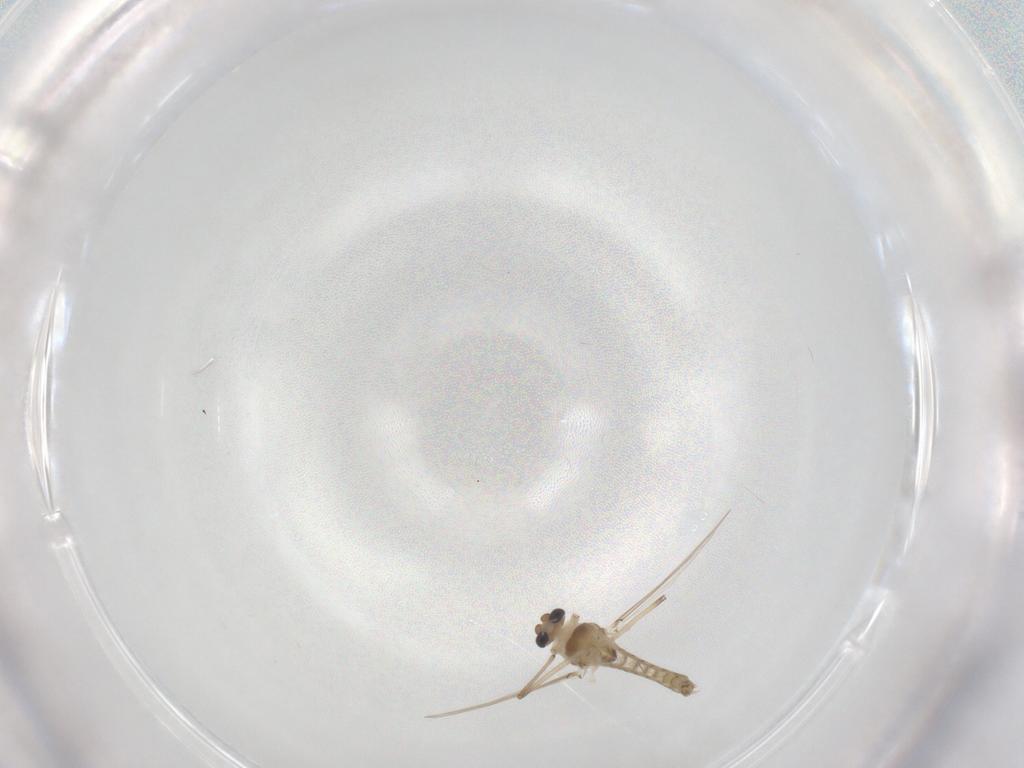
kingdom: Animalia
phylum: Arthropoda
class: Insecta
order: Diptera
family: Chironomidae
